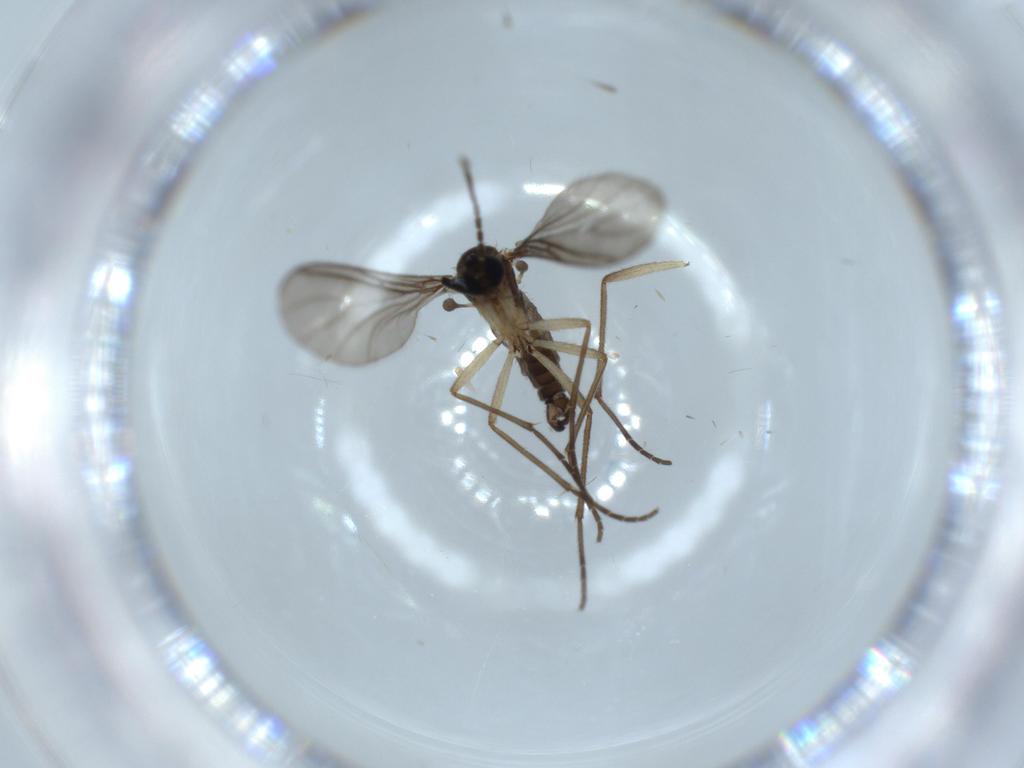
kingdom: Animalia
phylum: Arthropoda
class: Insecta
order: Diptera
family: Sciaridae
